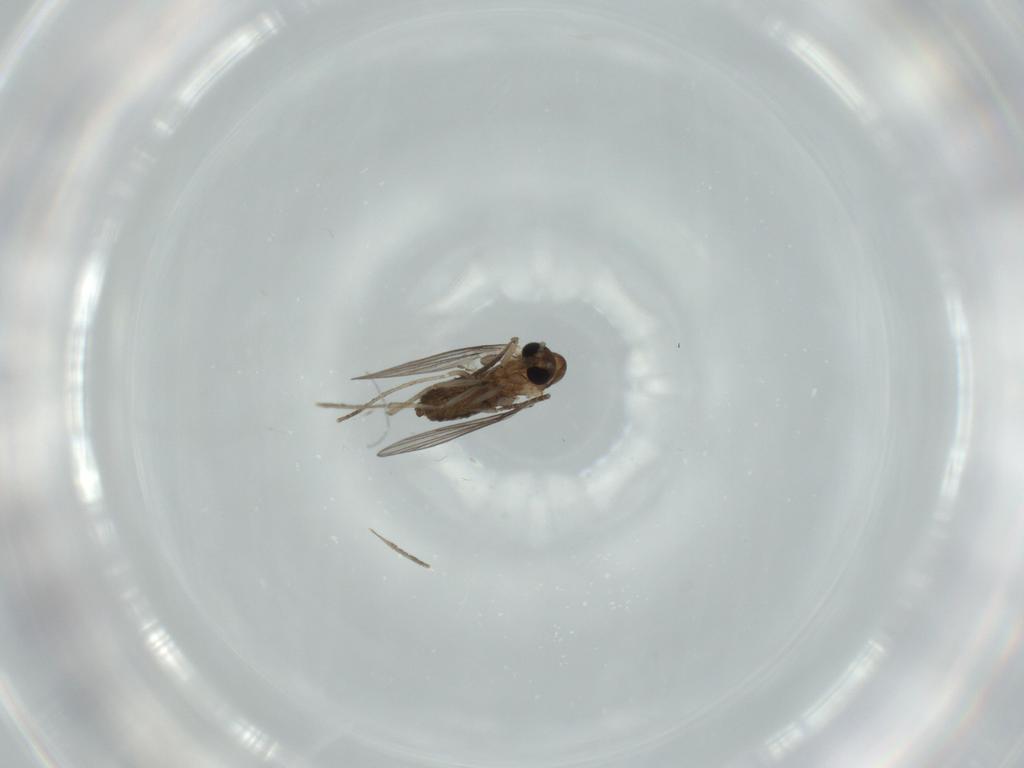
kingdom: Animalia
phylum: Arthropoda
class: Insecta
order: Diptera
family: Psychodidae
